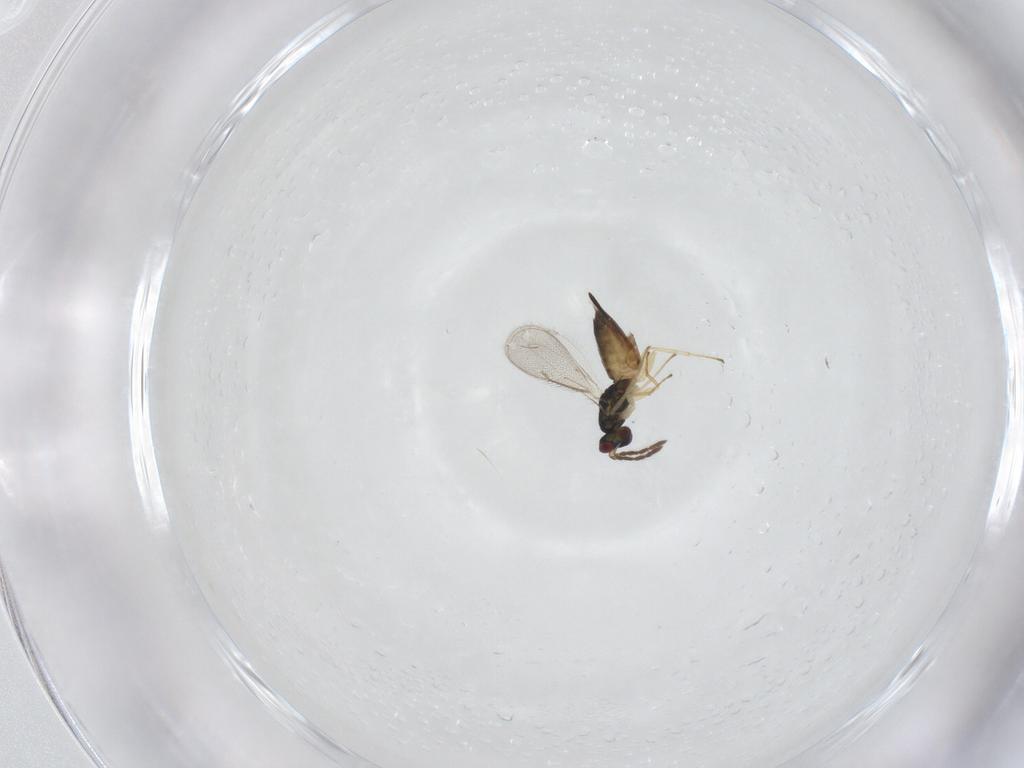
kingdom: Animalia
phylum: Arthropoda
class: Insecta
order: Hymenoptera
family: Eulophidae
